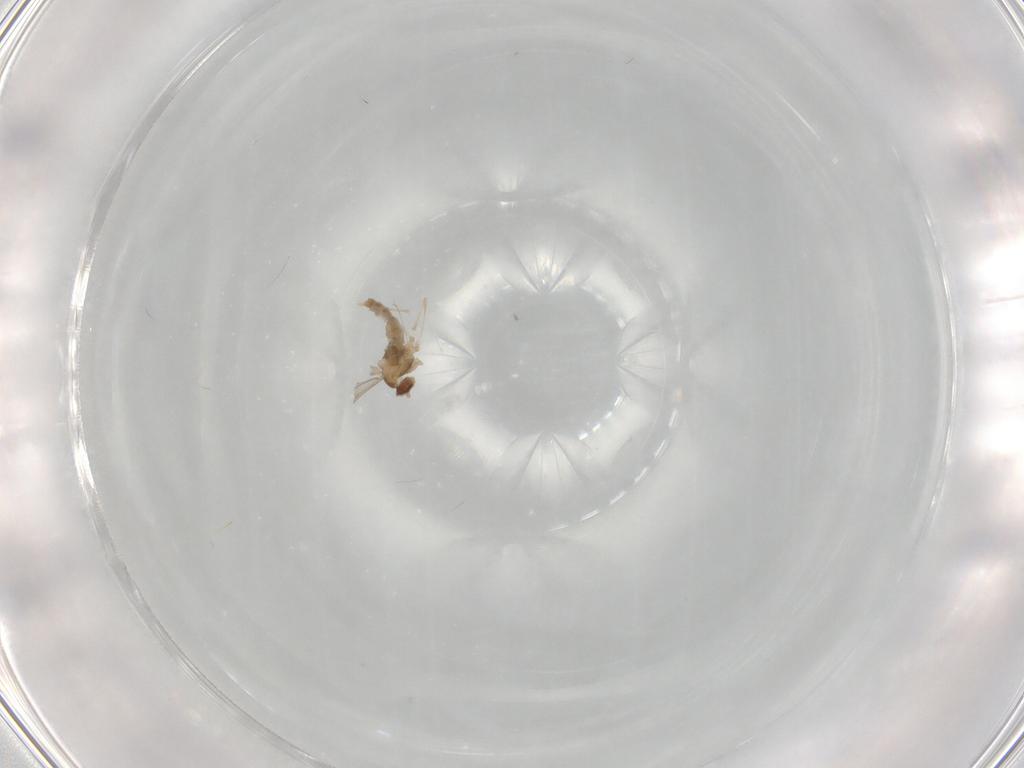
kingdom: Animalia
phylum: Arthropoda
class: Insecta
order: Diptera
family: Cecidomyiidae
